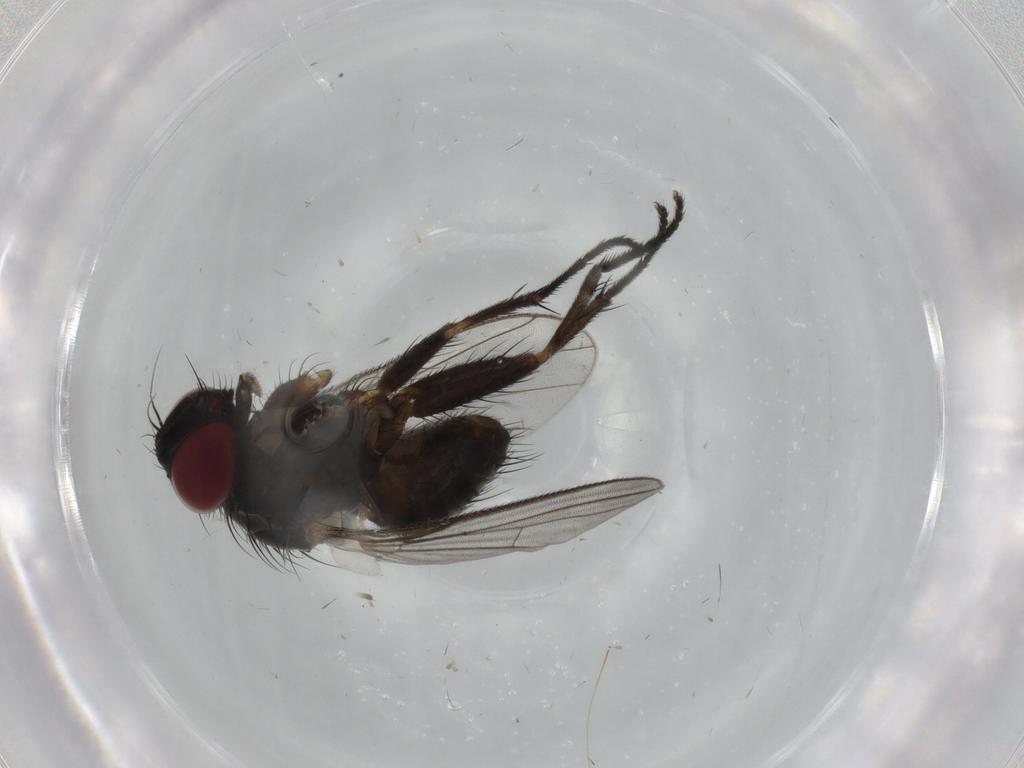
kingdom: Animalia
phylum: Arthropoda
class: Insecta
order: Diptera
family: Muscidae
